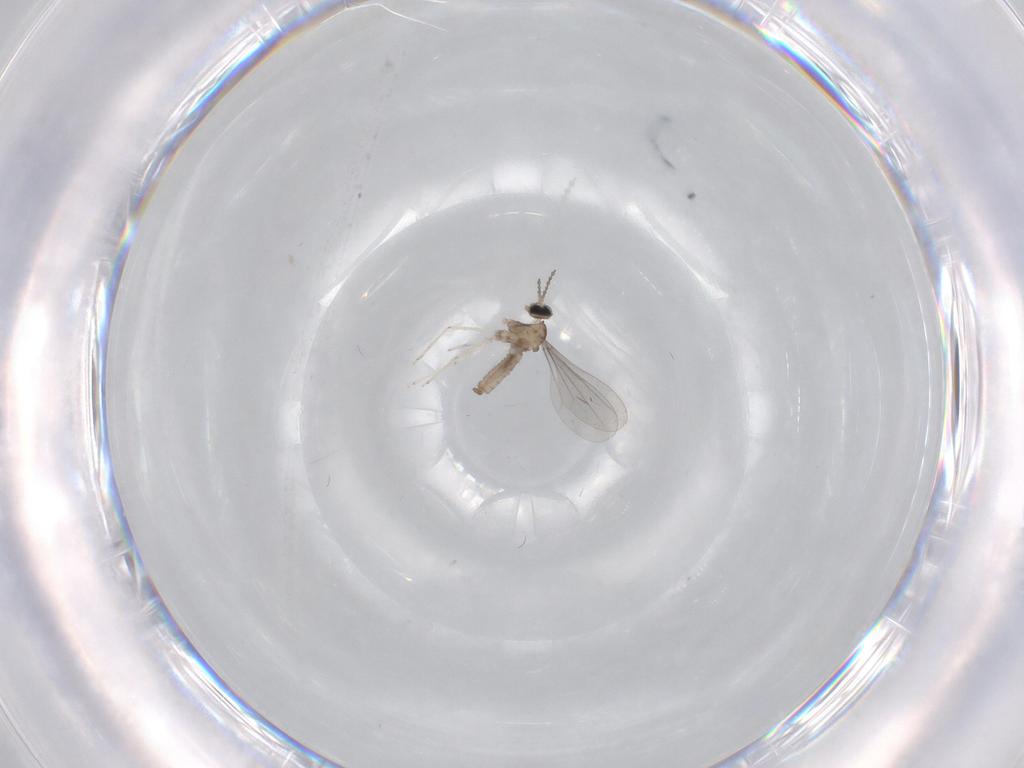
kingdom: Animalia
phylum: Arthropoda
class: Insecta
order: Diptera
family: Cecidomyiidae
